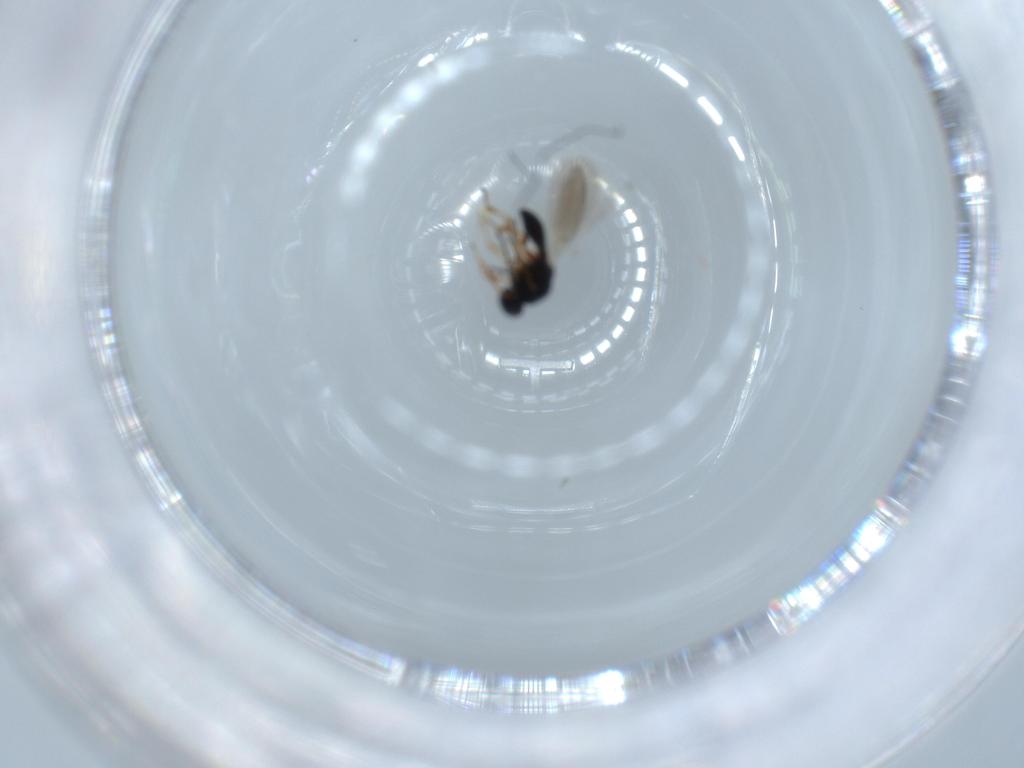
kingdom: Animalia
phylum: Arthropoda
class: Insecta
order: Hymenoptera
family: Platygastridae
